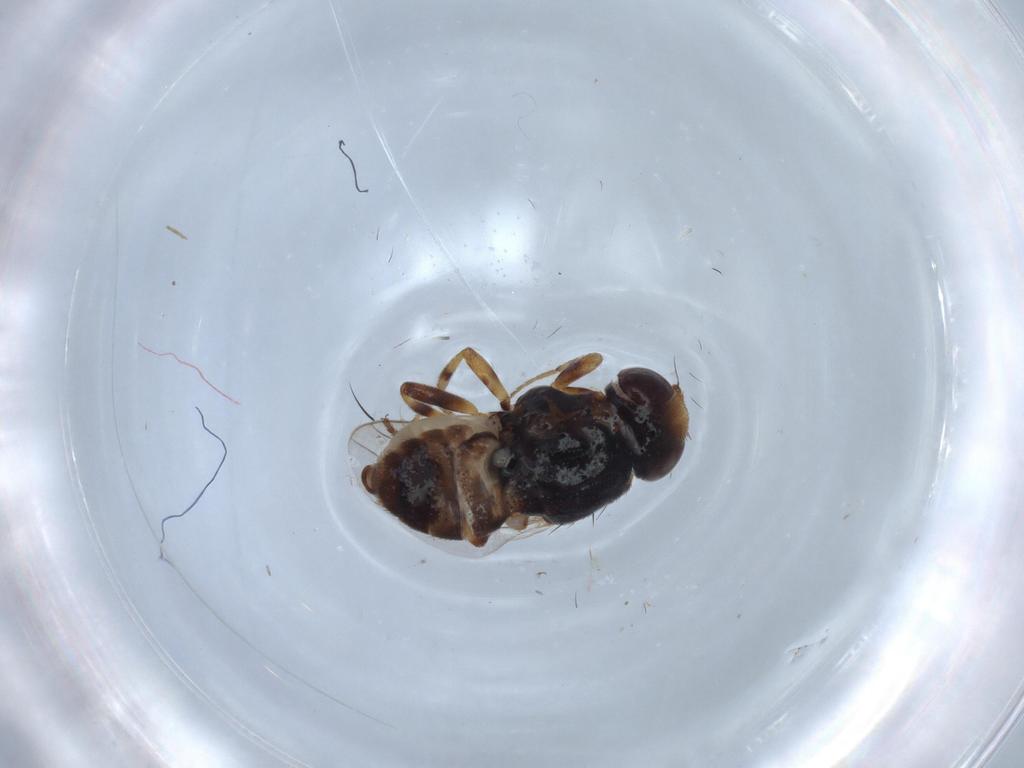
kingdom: Animalia
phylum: Arthropoda
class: Insecta
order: Diptera
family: Chloropidae
